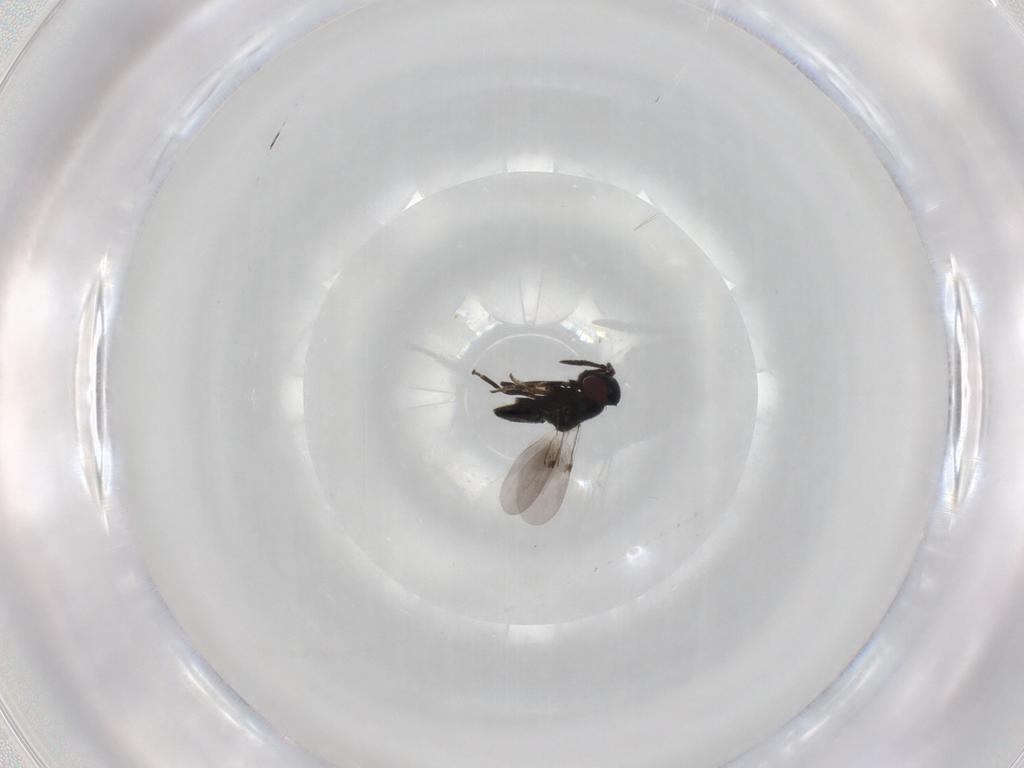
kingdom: Animalia
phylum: Arthropoda
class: Insecta
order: Hymenoptera
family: Encyrtidae
